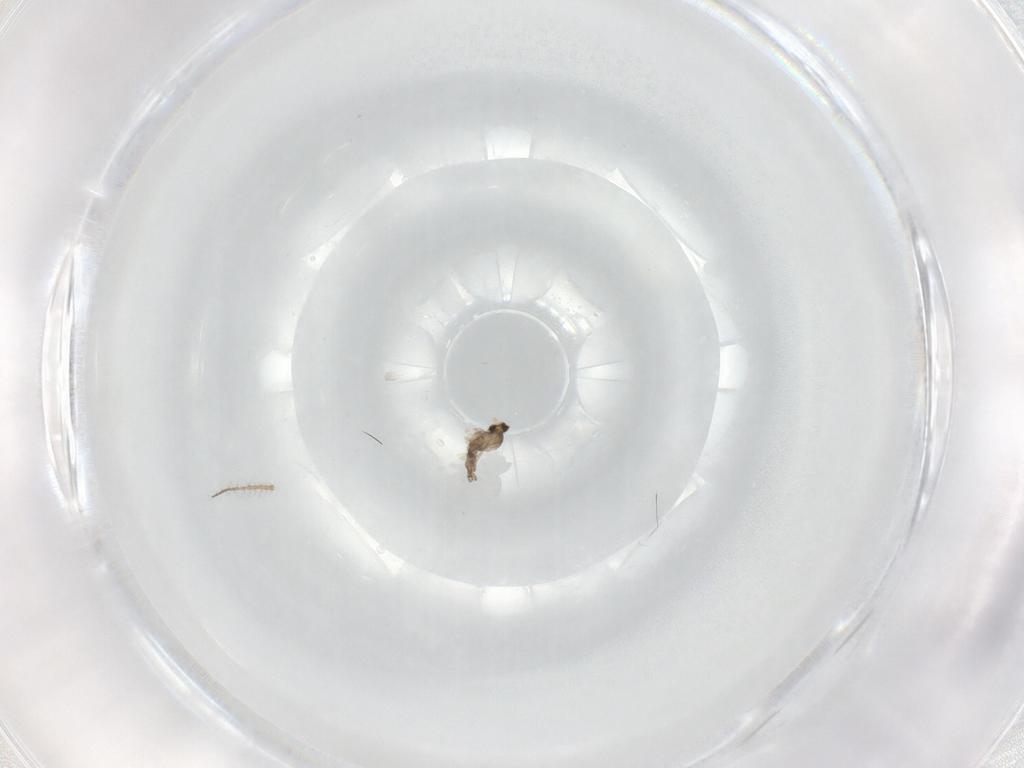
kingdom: Animalia
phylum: Arthropoda
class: Insecta
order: Diptera
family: Cecidomyiidae
